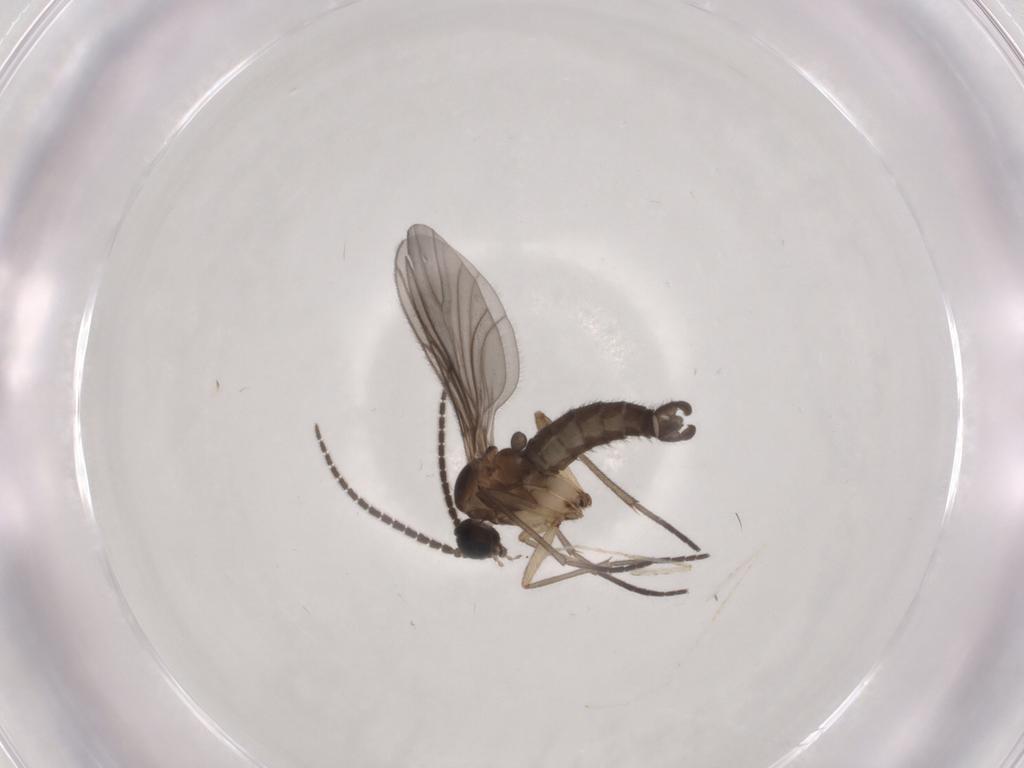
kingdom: Animalia
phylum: Arthropoda
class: Insecta
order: Diptera
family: Sciaridae
